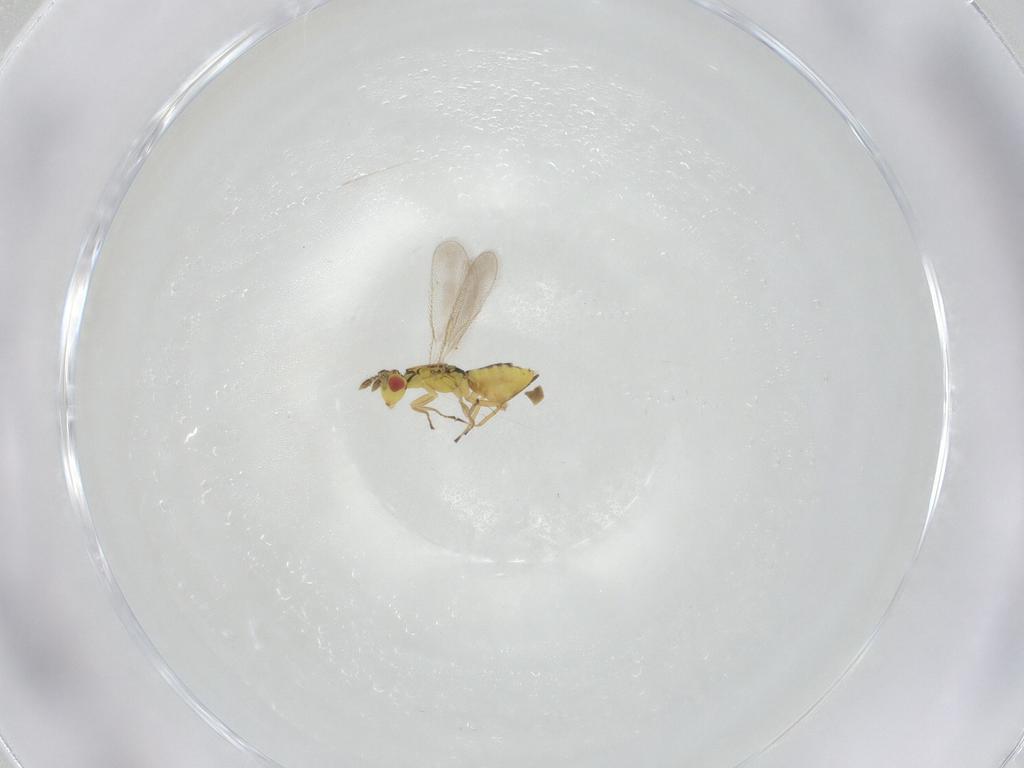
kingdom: Animalia
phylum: Arthropoda
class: Insecta
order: Hymenoptera
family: Eulophidae
